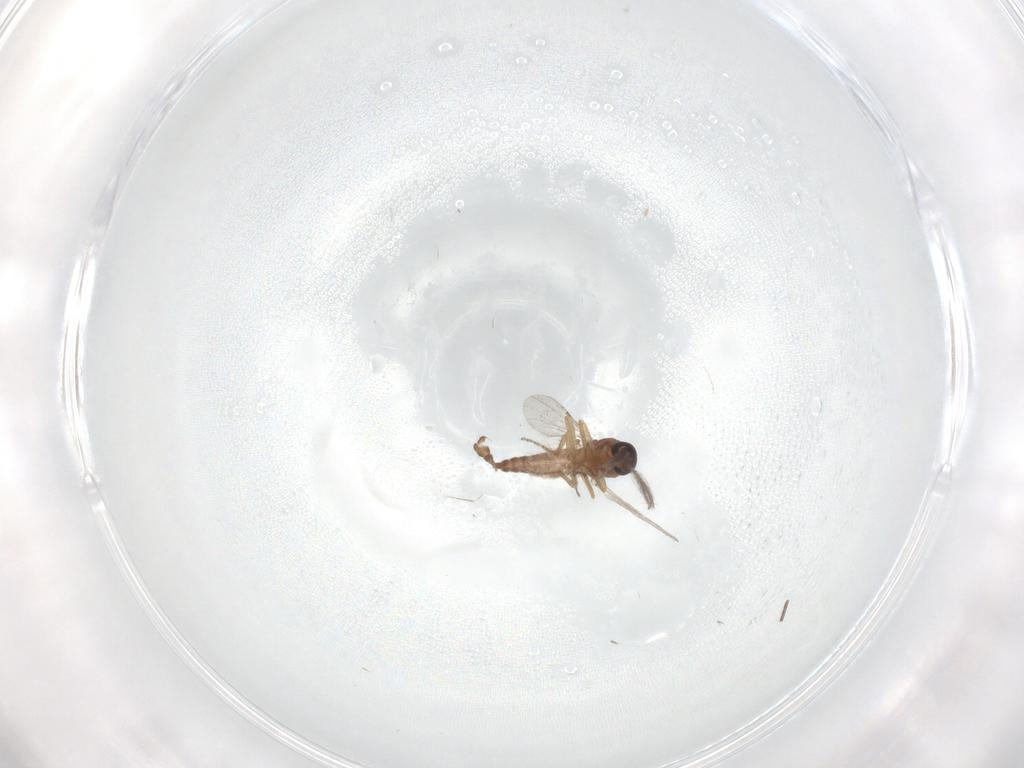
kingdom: Animalia
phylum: Arthropoda
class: Insecta
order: Diptera
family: Ceratopogonidae
